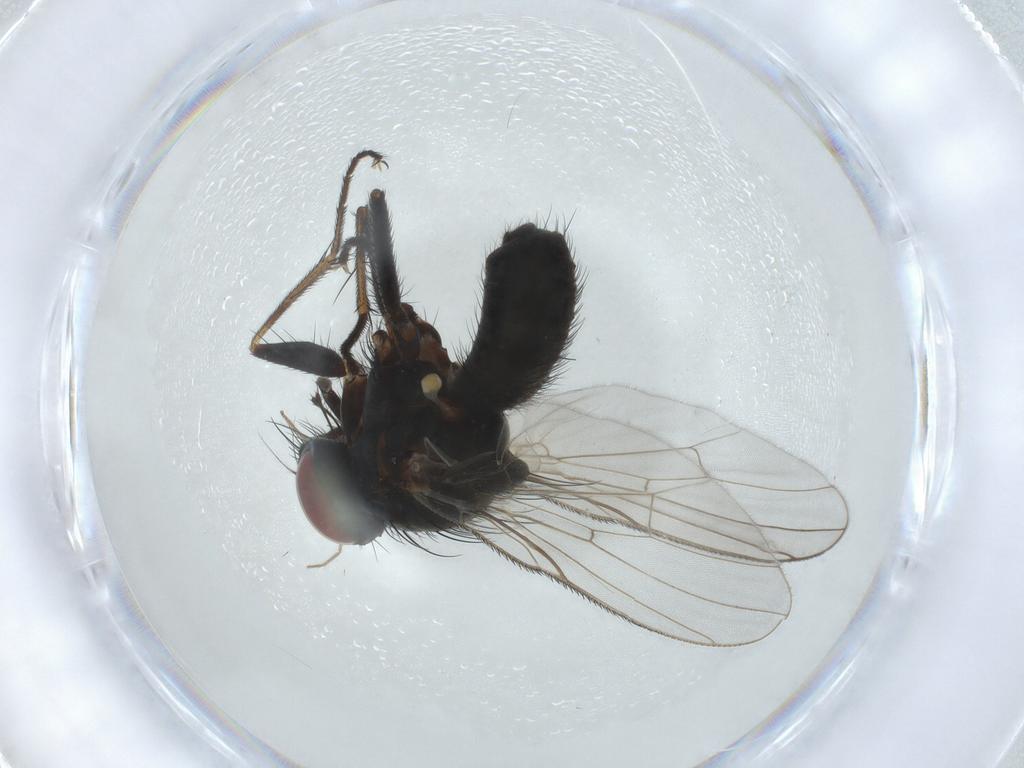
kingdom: Animalia
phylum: Arthropoda
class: Insecta
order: Diptera
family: Muscidae
